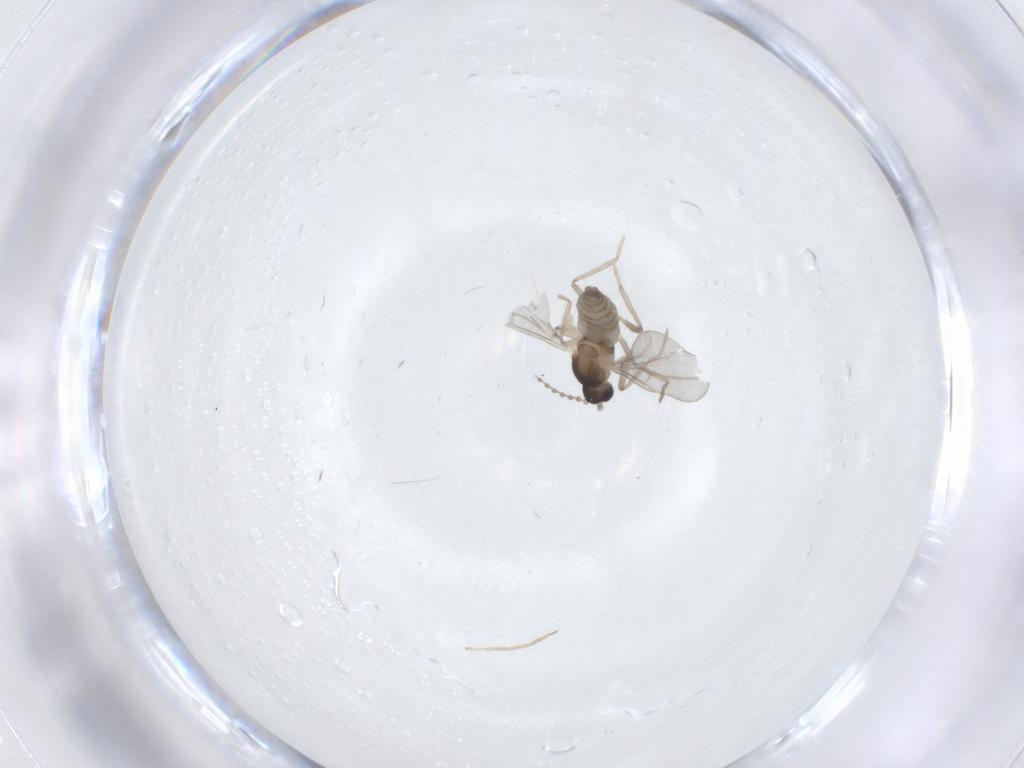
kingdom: Animalia
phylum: Arthropoda
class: Insecta
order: Diptera
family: Cecidomyiidae
